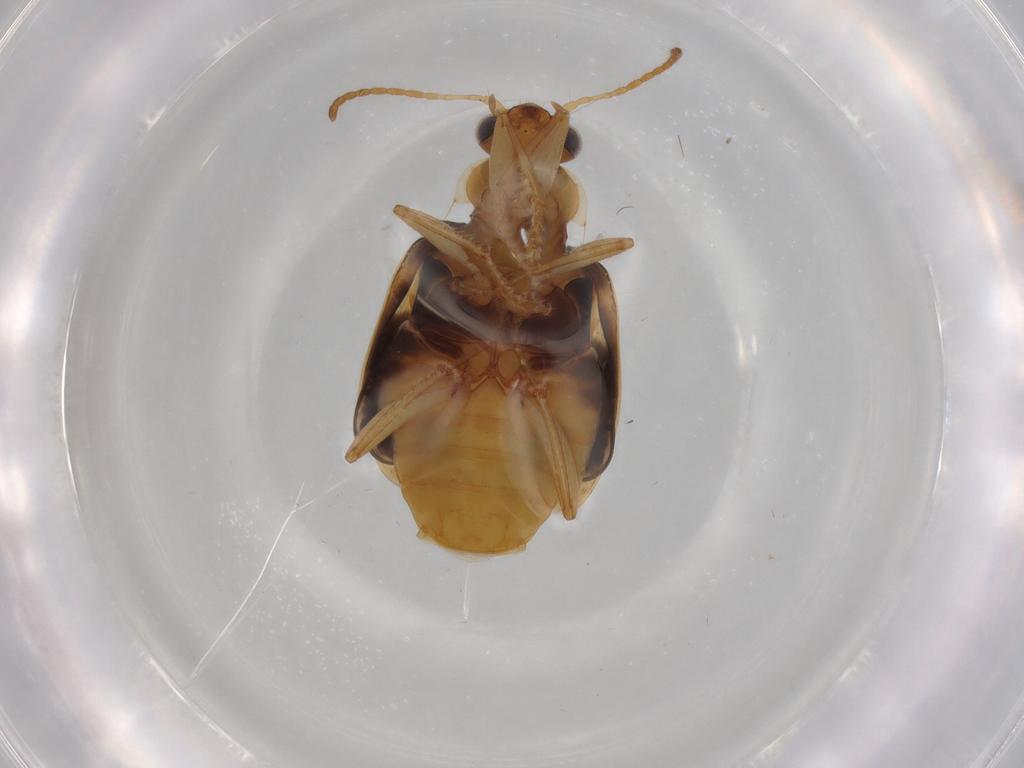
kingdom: Animalia
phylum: Arthropoda
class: Insecta
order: Coleoptera
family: Carabidae
